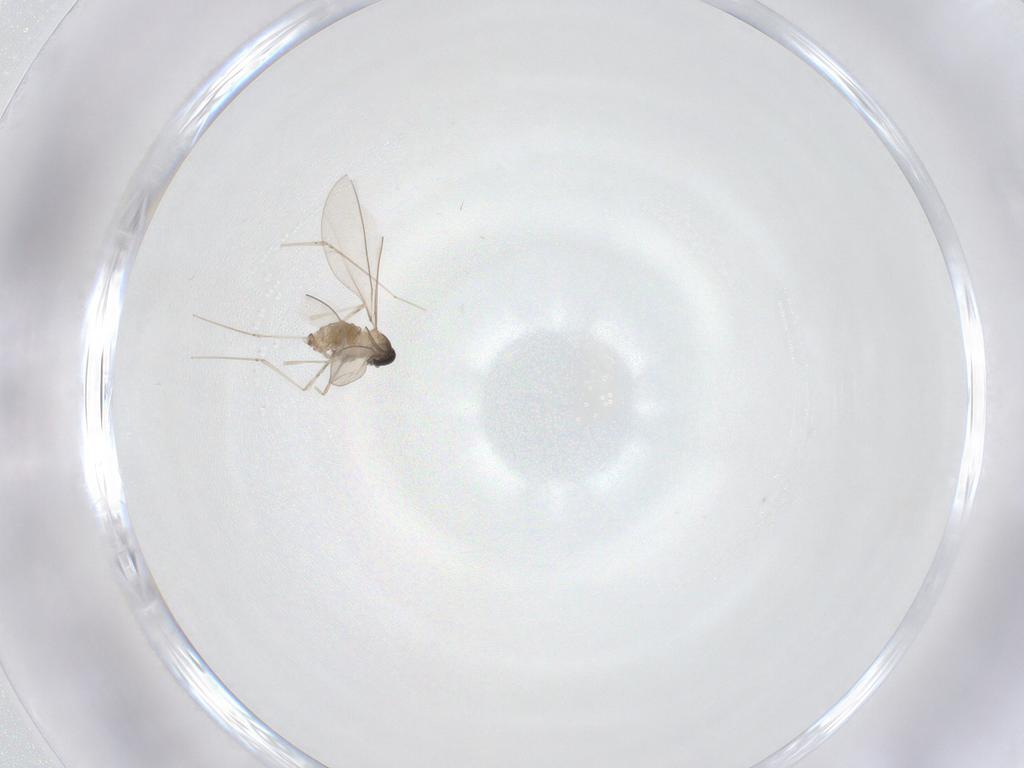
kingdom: Animalia
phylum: Arthropoda
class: Insecta
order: Diptera
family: Cecidomyiidae
